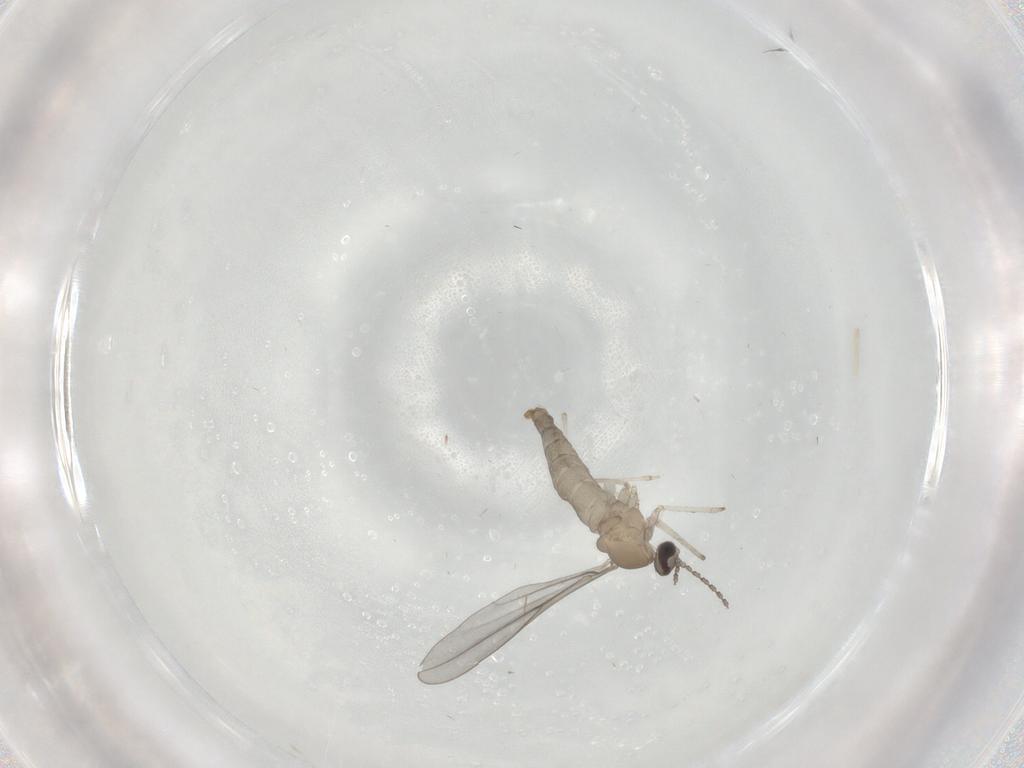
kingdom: Animalia
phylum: Arthropoda
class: Insecta
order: Diptera
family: Cecidomyiidae
